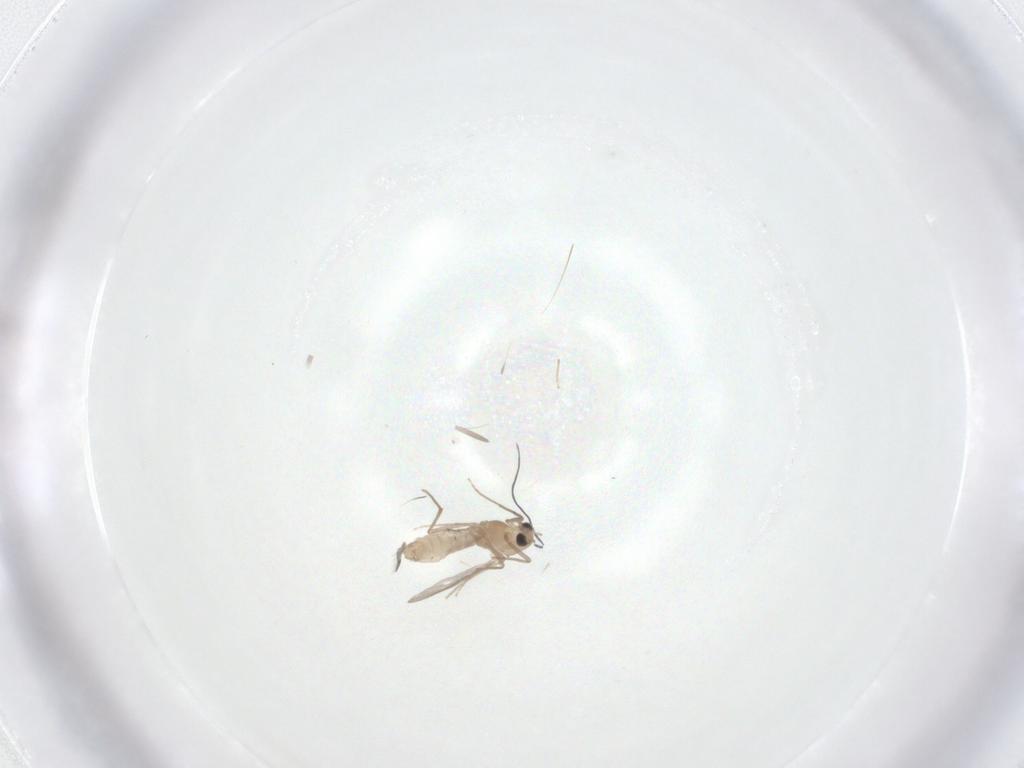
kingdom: Animalia
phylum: Arthropoda
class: Insecta
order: Diptera
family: Chironomidae
